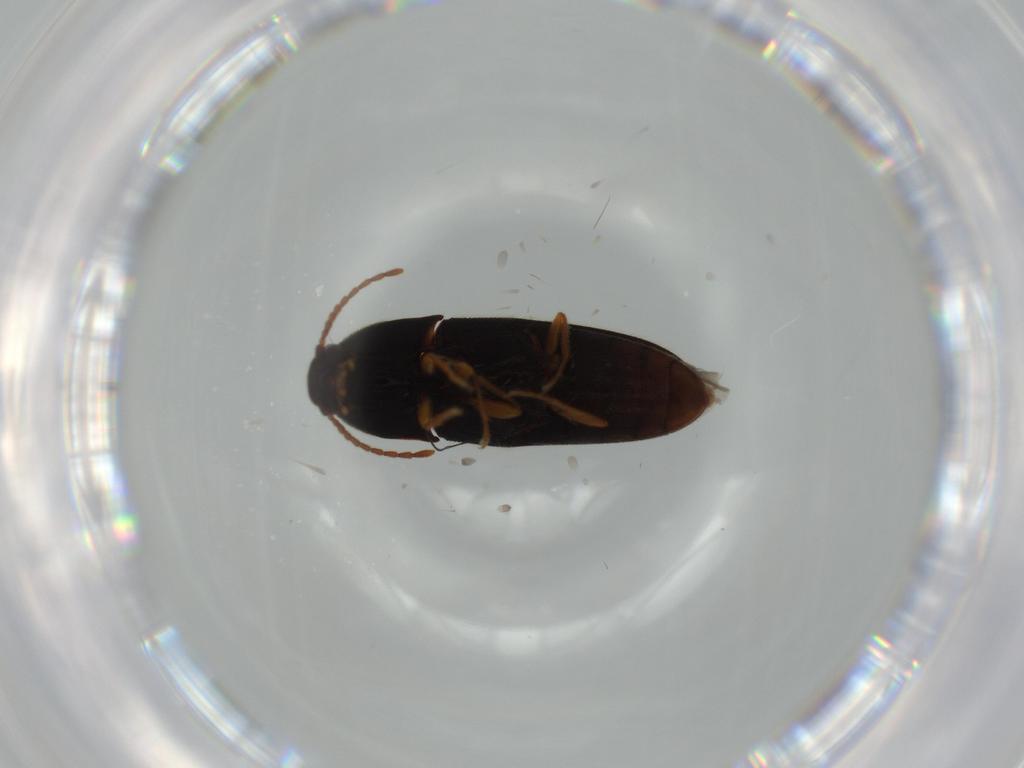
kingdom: Animalia
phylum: Arthropoda
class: Insecta
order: Coleoptera
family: Elateridae
